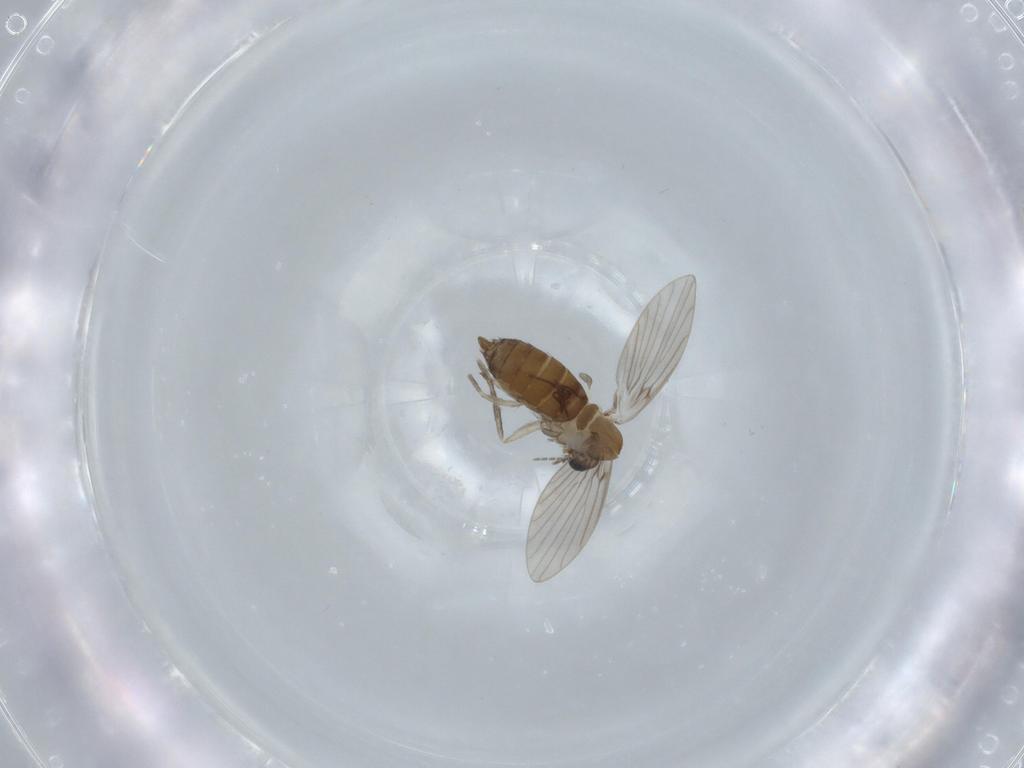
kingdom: Animalia
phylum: Arthropoda
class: Insecta
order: Diptera
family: Psychodidae
